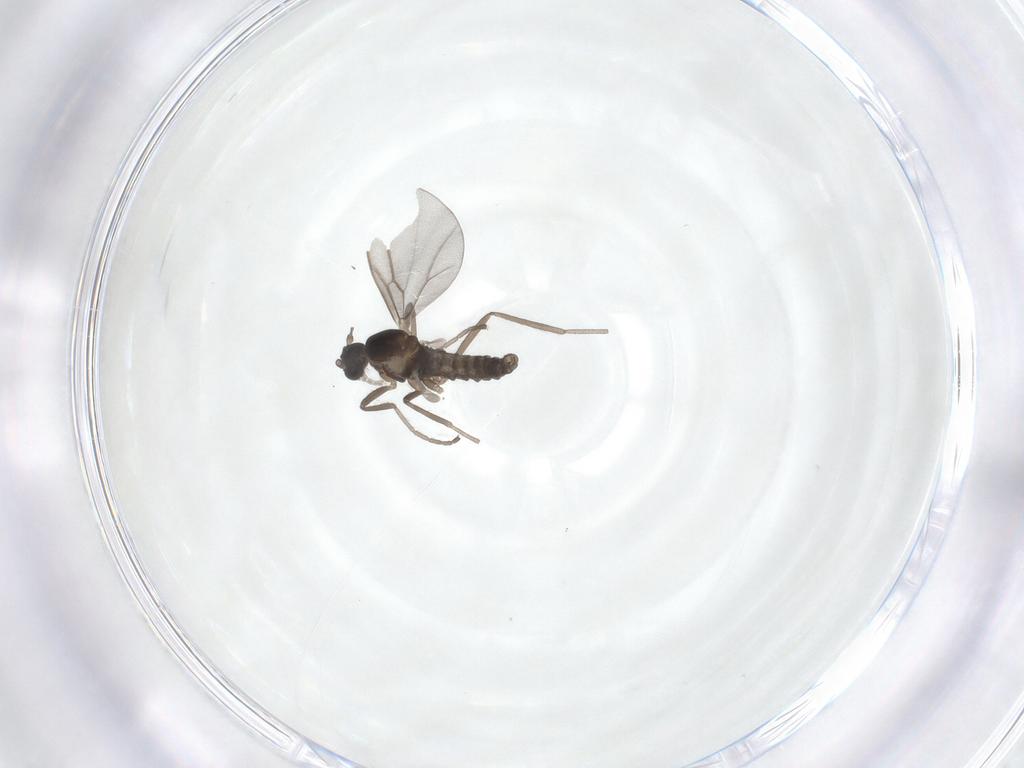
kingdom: Animalia
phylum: Arthropoda
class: Insecta
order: Diptera
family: Cecidomyiidae
